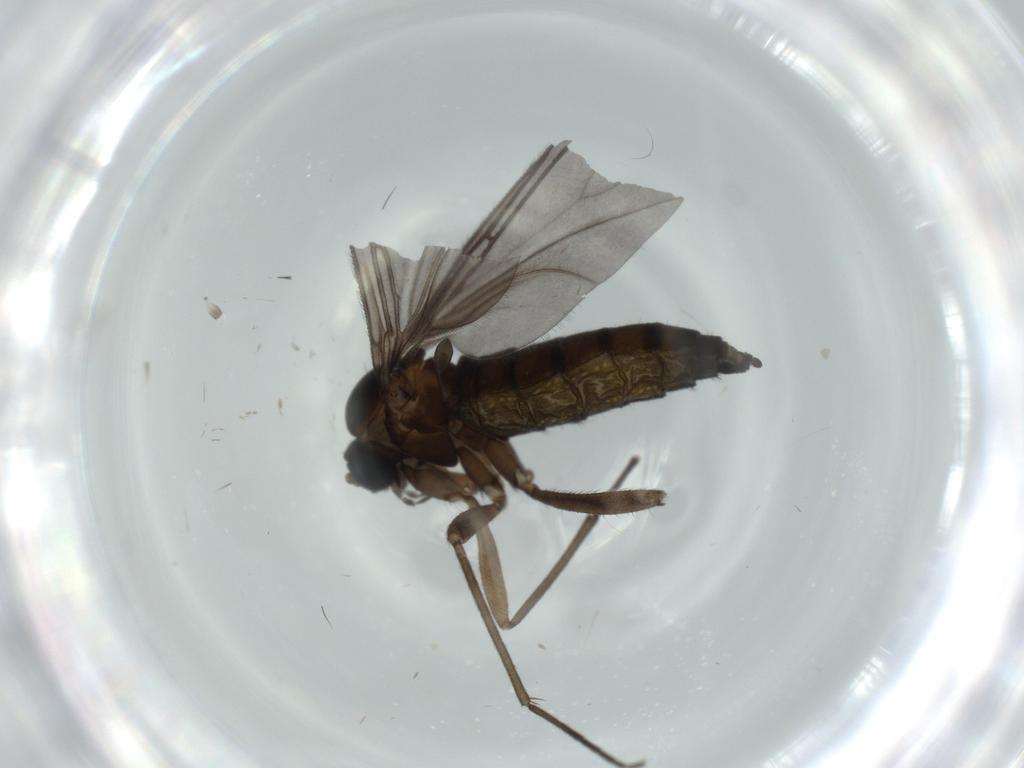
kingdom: Animalia
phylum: Arthropoda
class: Insecta
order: Diptera
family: Sciaridae
